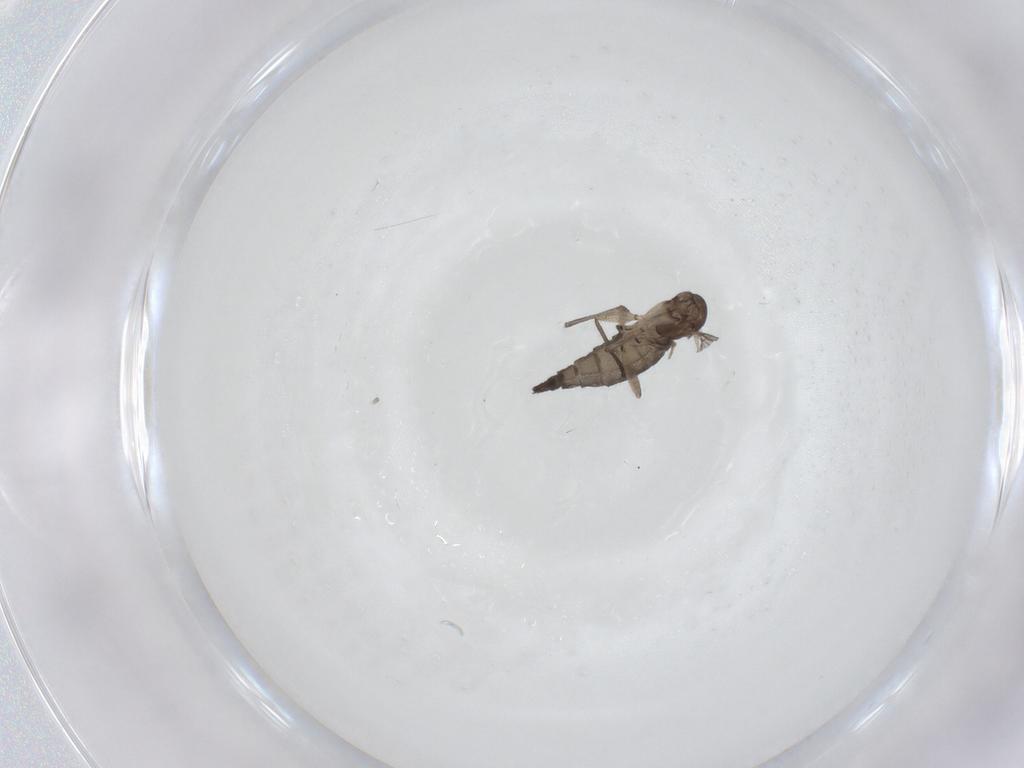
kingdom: Animalia
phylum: Arthropoda
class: Insecta
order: Diptera
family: Sciaridae
